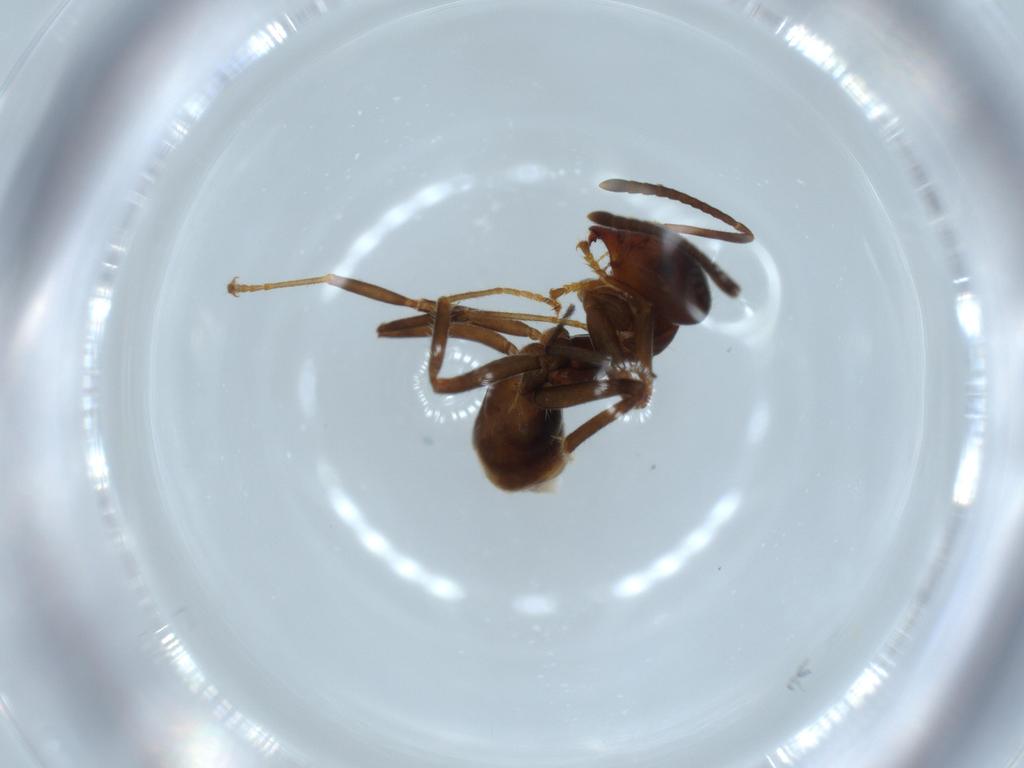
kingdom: Animalia
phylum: Arthropoda
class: Insecta
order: Hymenoptera
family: Formicidae
